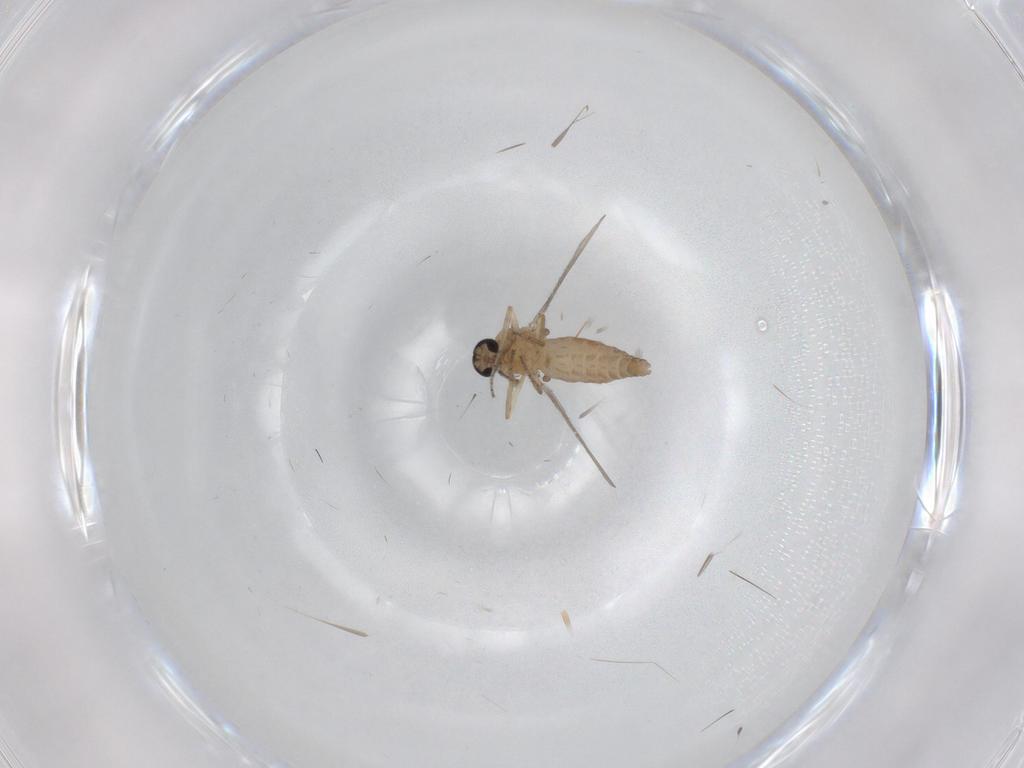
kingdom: Animalia
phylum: Arthropoda
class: Insecta
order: Diptera
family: Ceratopogonidae
